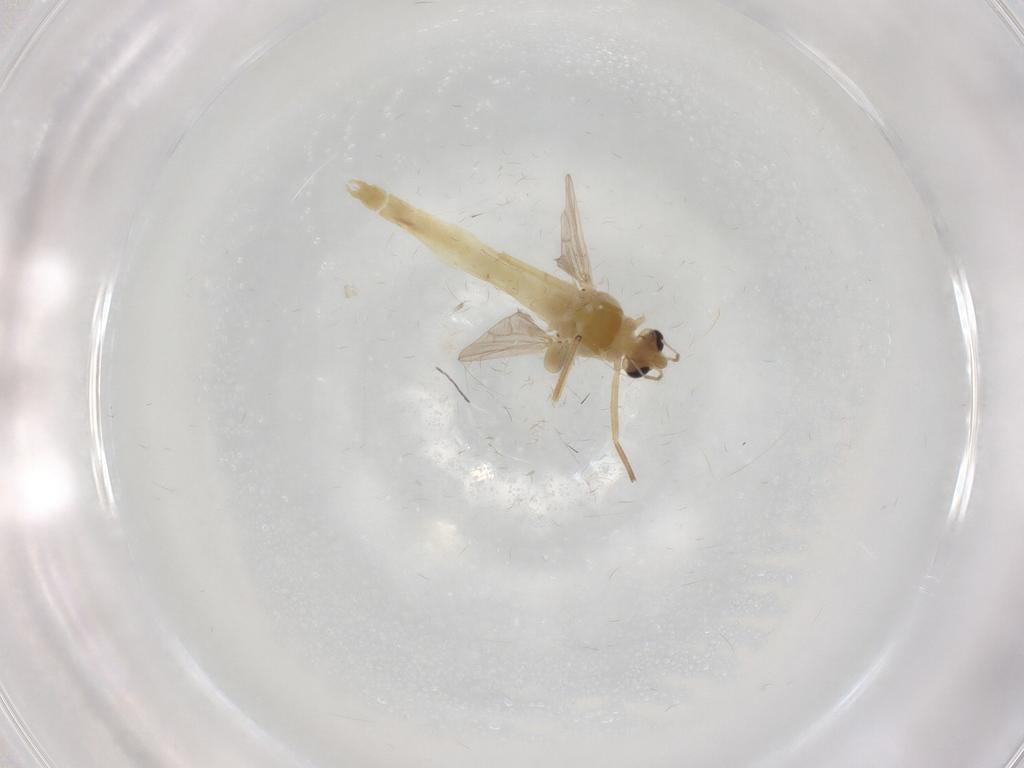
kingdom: Animalia
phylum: Arthropoda
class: Insecta
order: Diptera
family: Chironomidae
